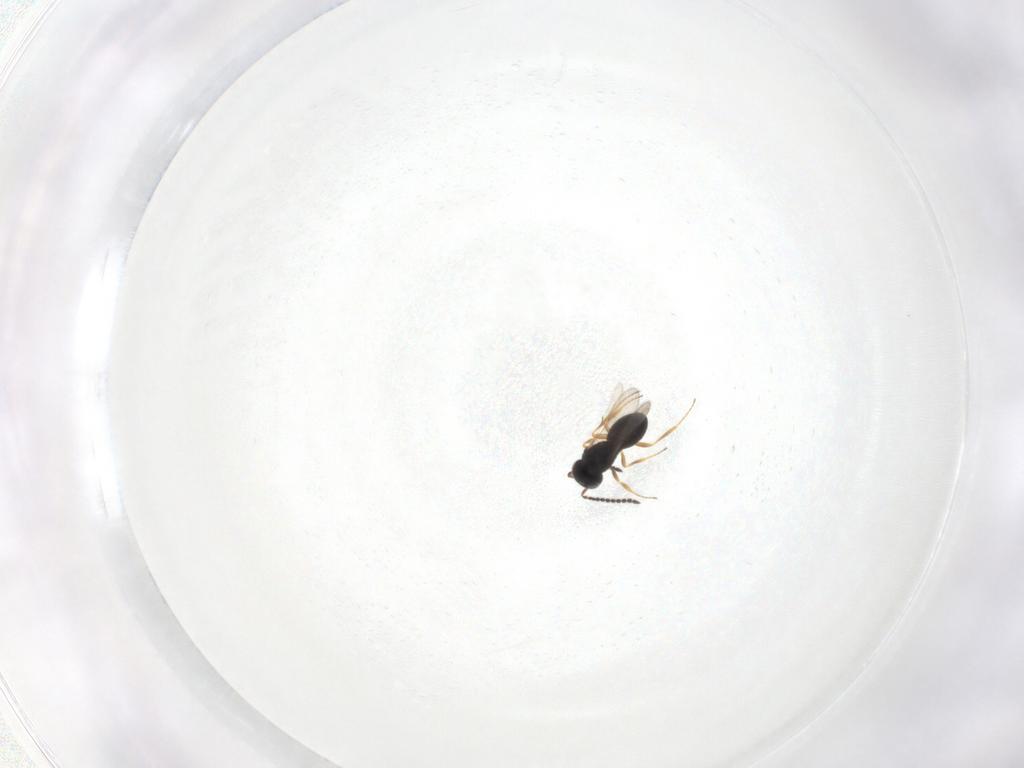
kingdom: Animalia
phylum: Arthropoda
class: Insecta
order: Hymenoptera
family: Scelionidae
